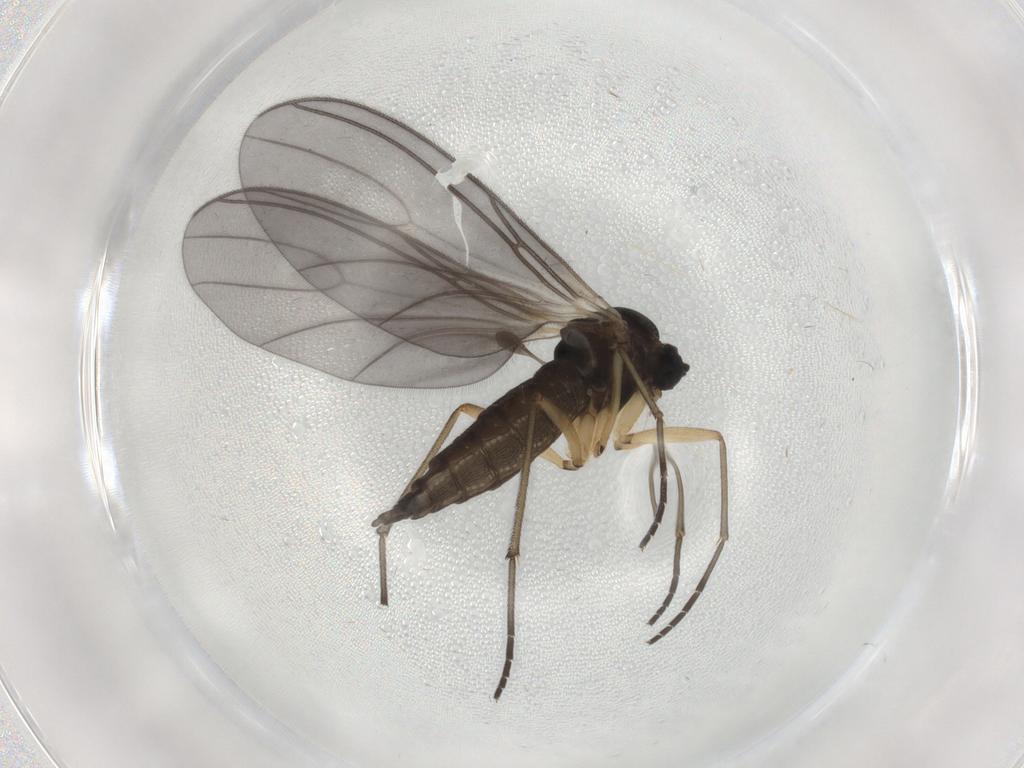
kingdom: Animalia
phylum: Arthropoda
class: Insecta
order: Diptera
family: Sciaridae
